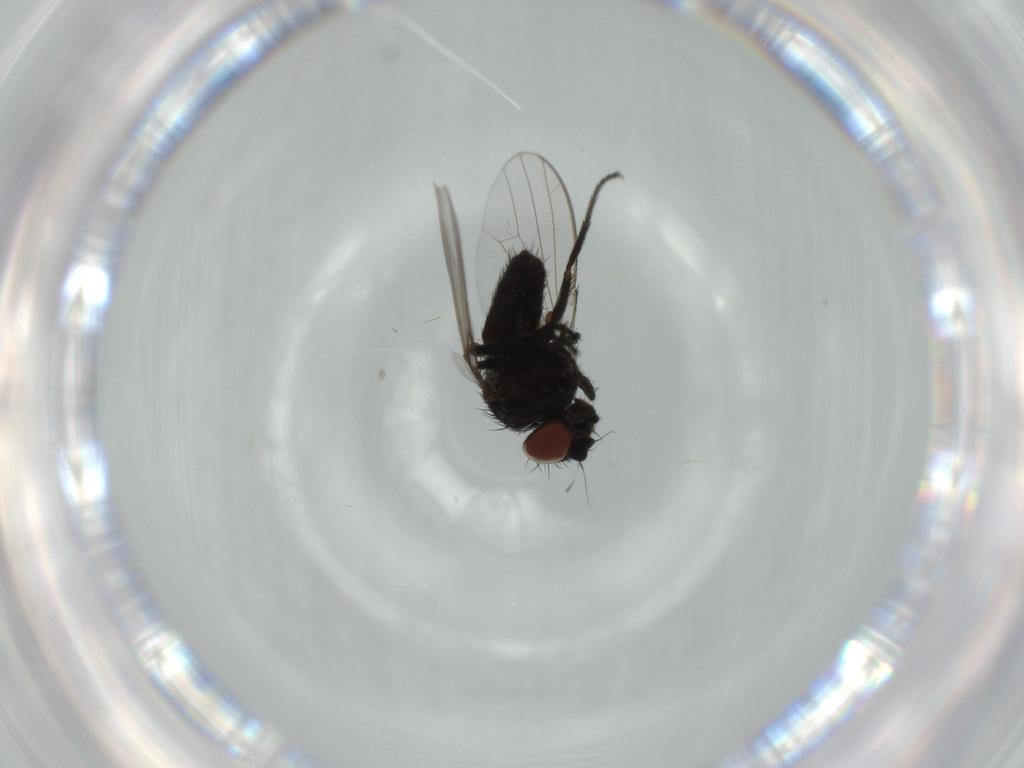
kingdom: Animalia
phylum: Arthropoda
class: Insecta
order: Diptera
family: Milichiidae
